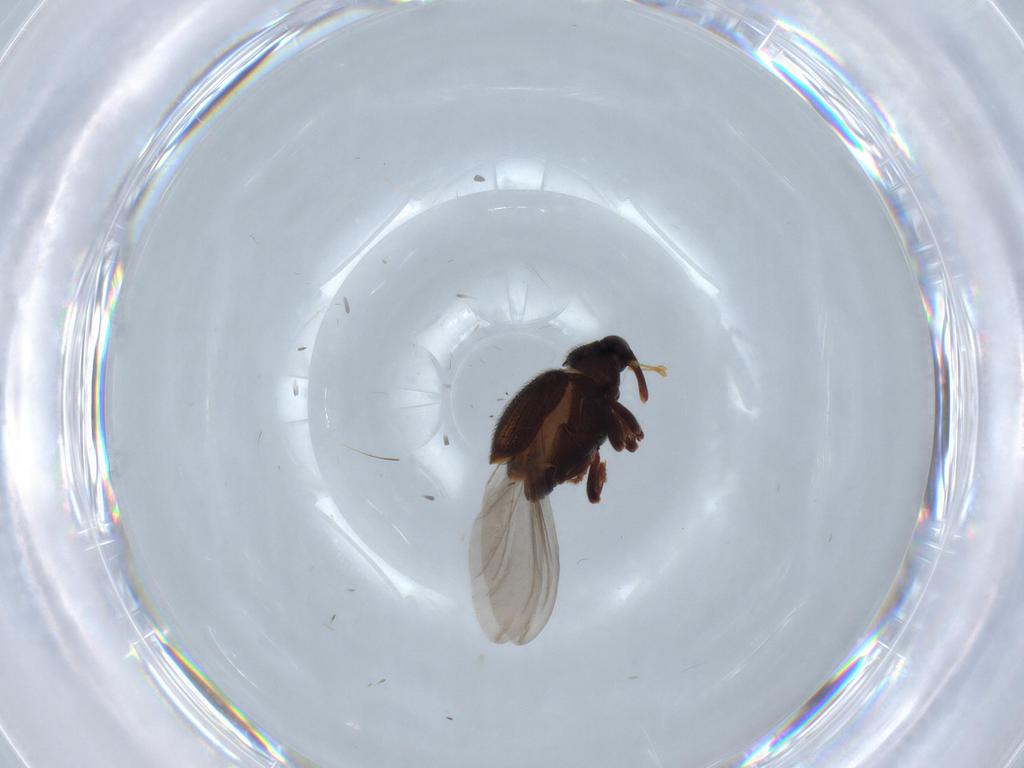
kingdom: Animalia
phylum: Arthropoda
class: Insecta
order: Coleoptera
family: Curculionidae
